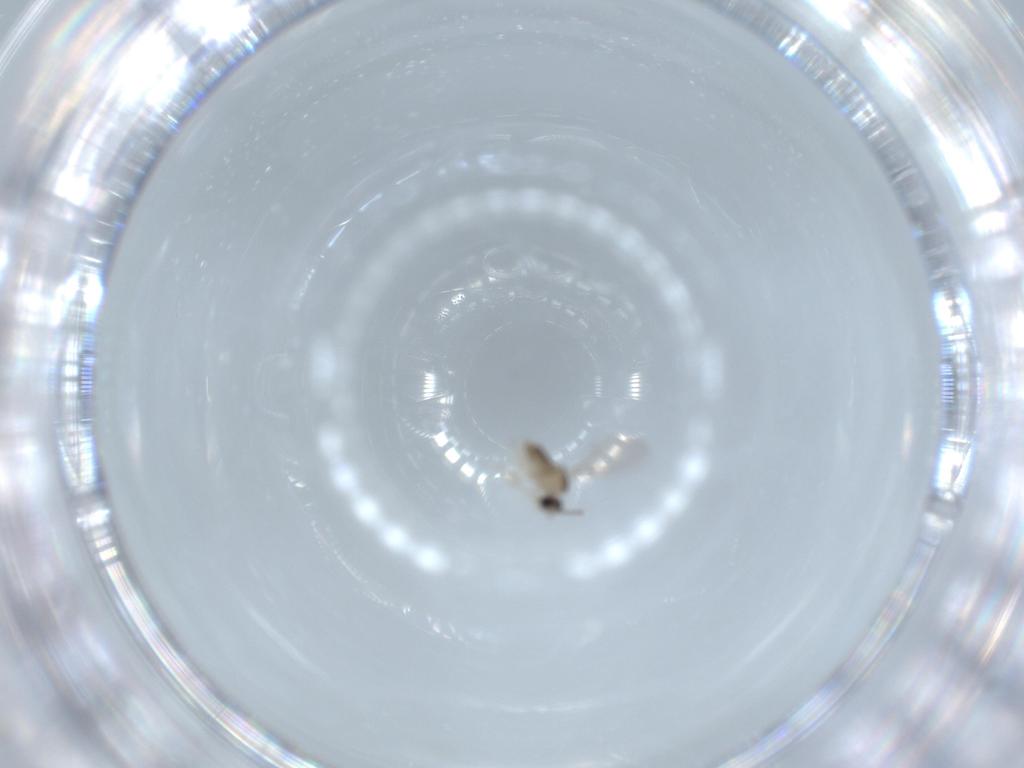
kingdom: Animalia
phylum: Arthropoda
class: Insecta
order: Diptera
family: Cecidomyiidae
